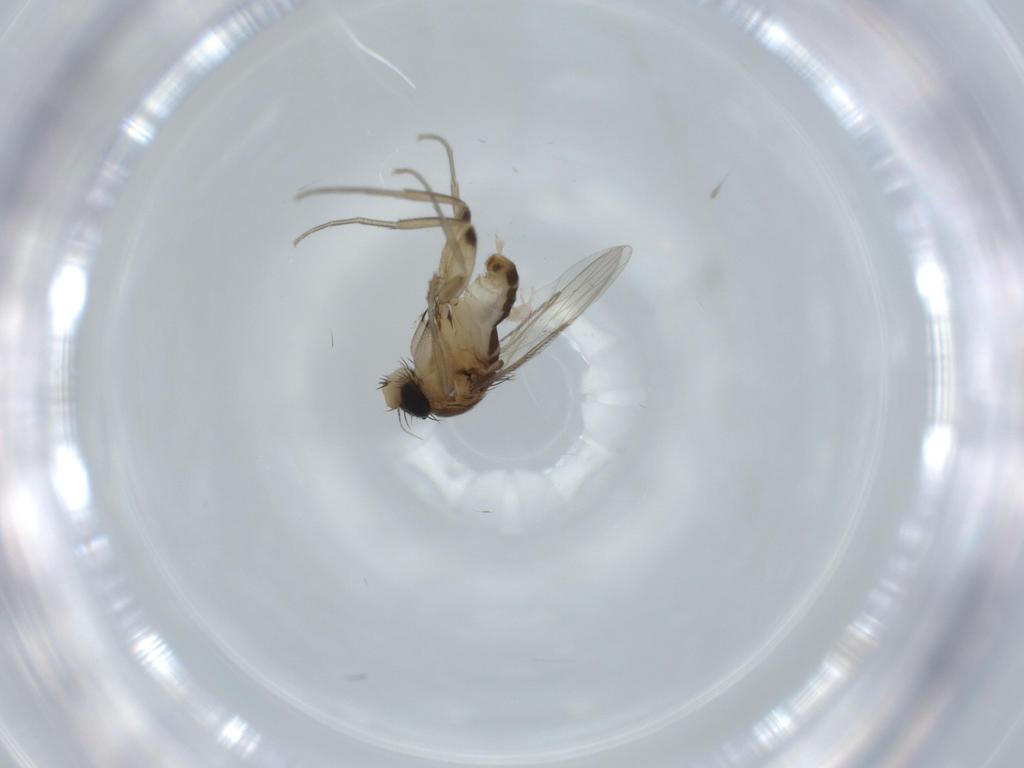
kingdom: Animalia
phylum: Arthropoda
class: Insecta
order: Diptera
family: Phoridae
